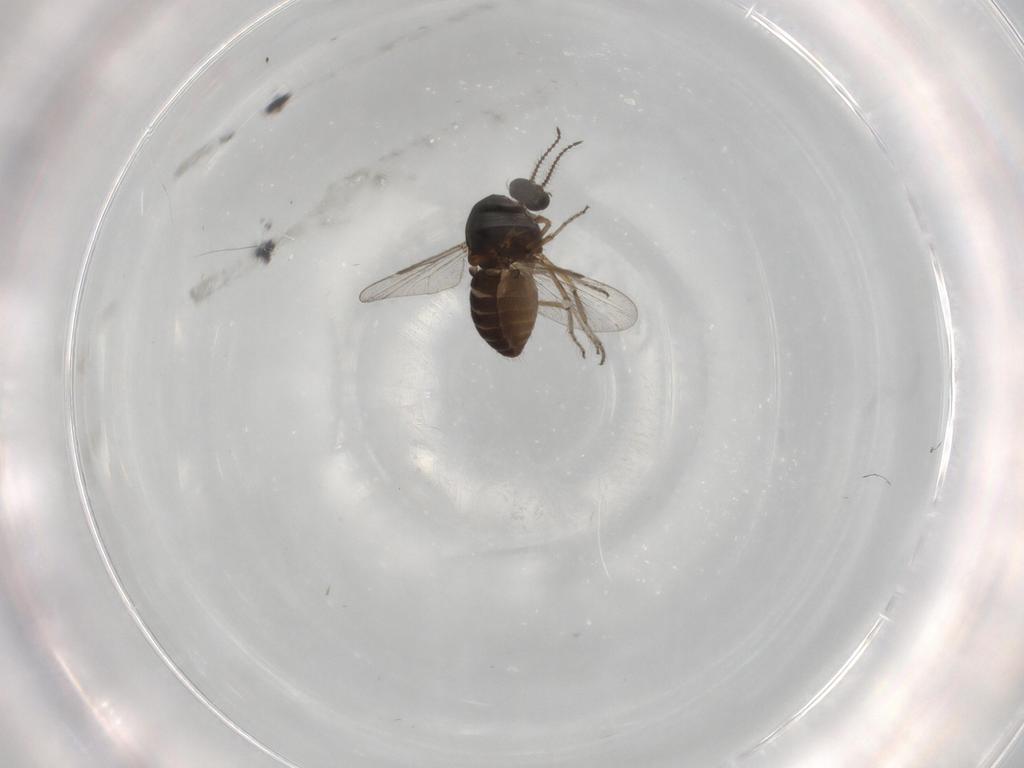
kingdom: Animalia
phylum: Arthropoda
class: Insecta
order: Diptera
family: Ceratopogonidae
